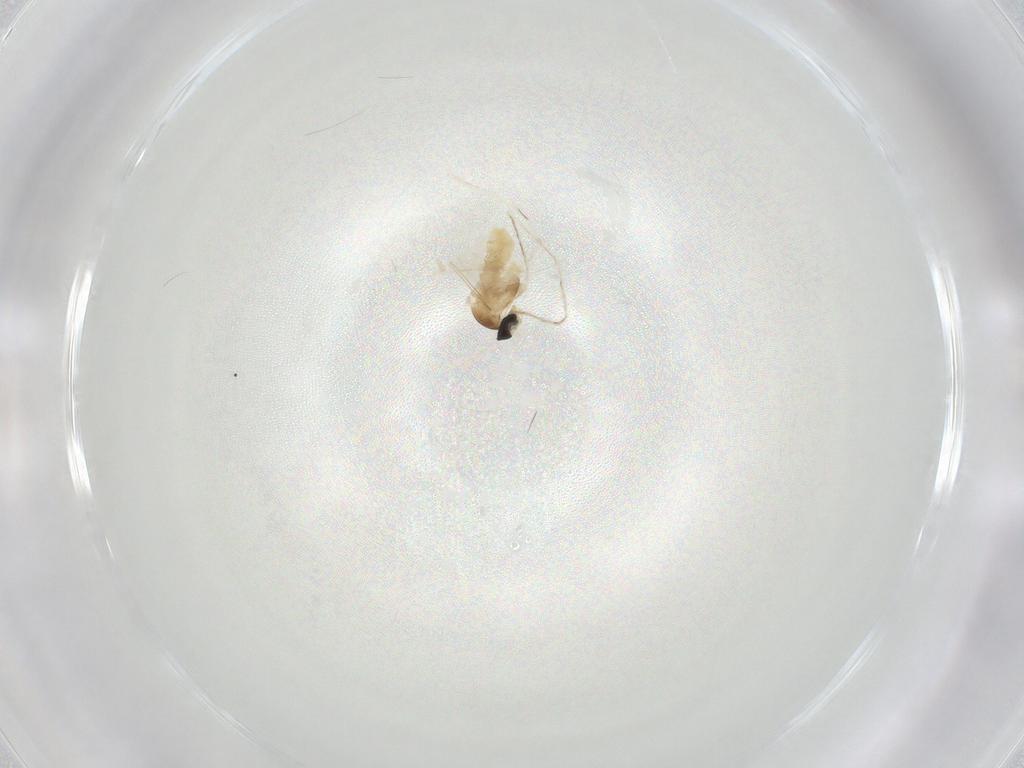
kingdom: Animalia
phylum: Arthropoda
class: Insecta
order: Diptera
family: Cecidomyiidae
